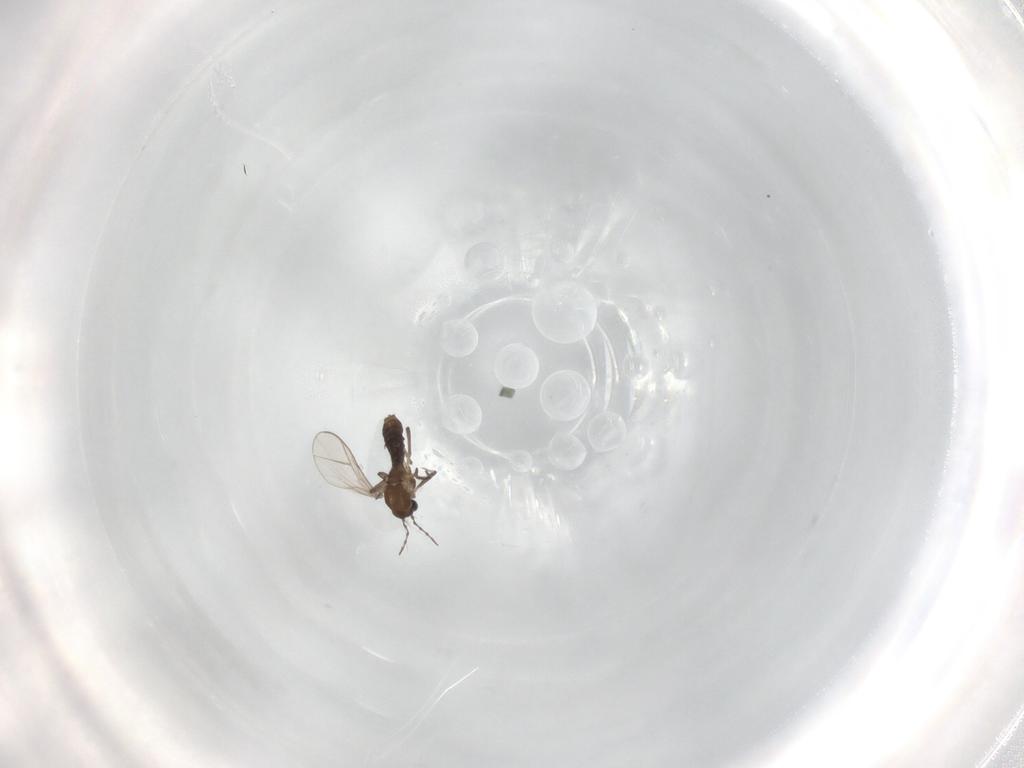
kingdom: Animalia
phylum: Arthropoda
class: Insecta
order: Diptera
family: Chironomidae
